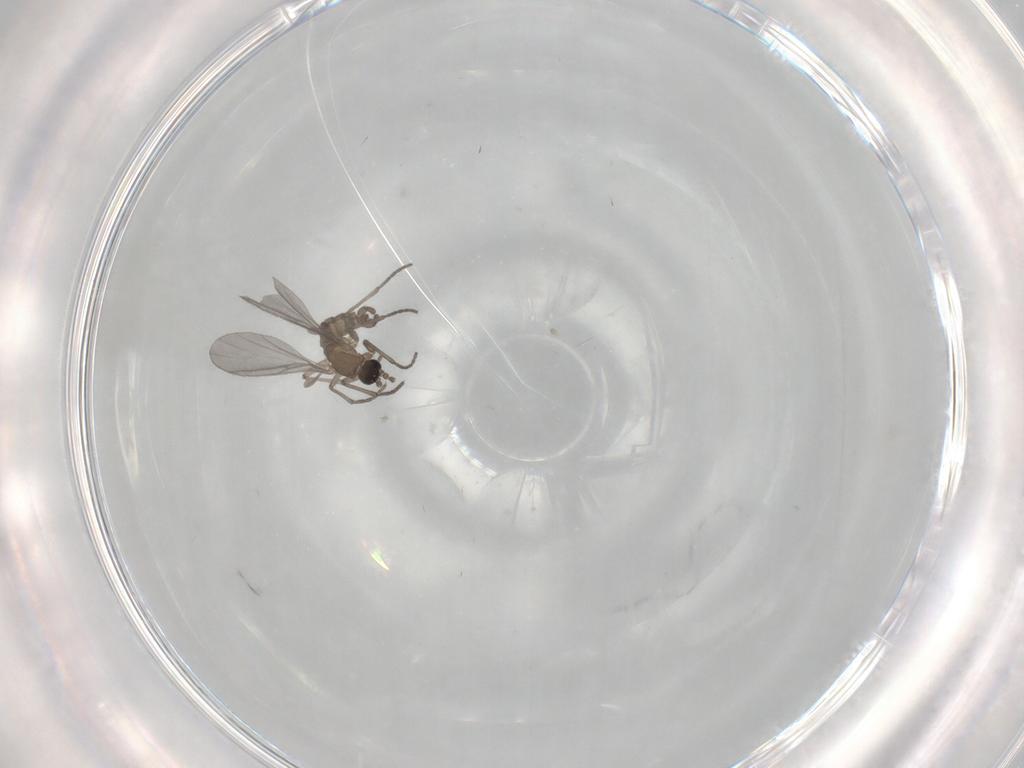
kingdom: Animalia
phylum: Arthropoda
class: Insecta
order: Diptera
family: Sciaridae
